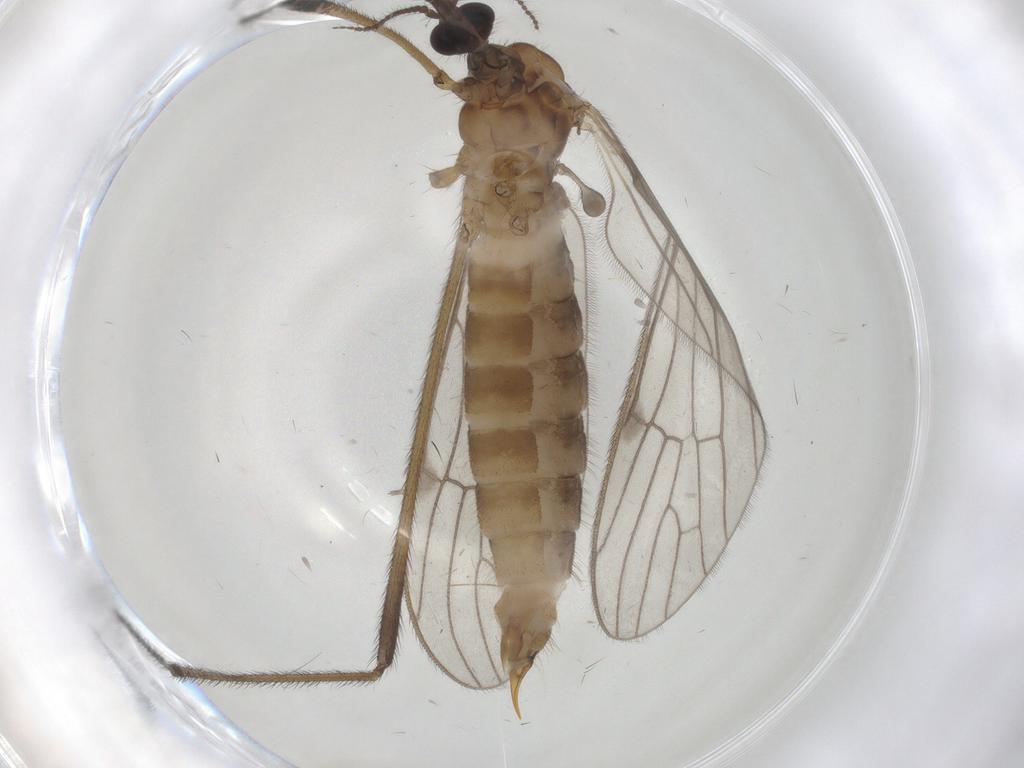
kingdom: Animalia
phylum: Arthropoda
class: Insecta
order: Diptera
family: Limoniidae
